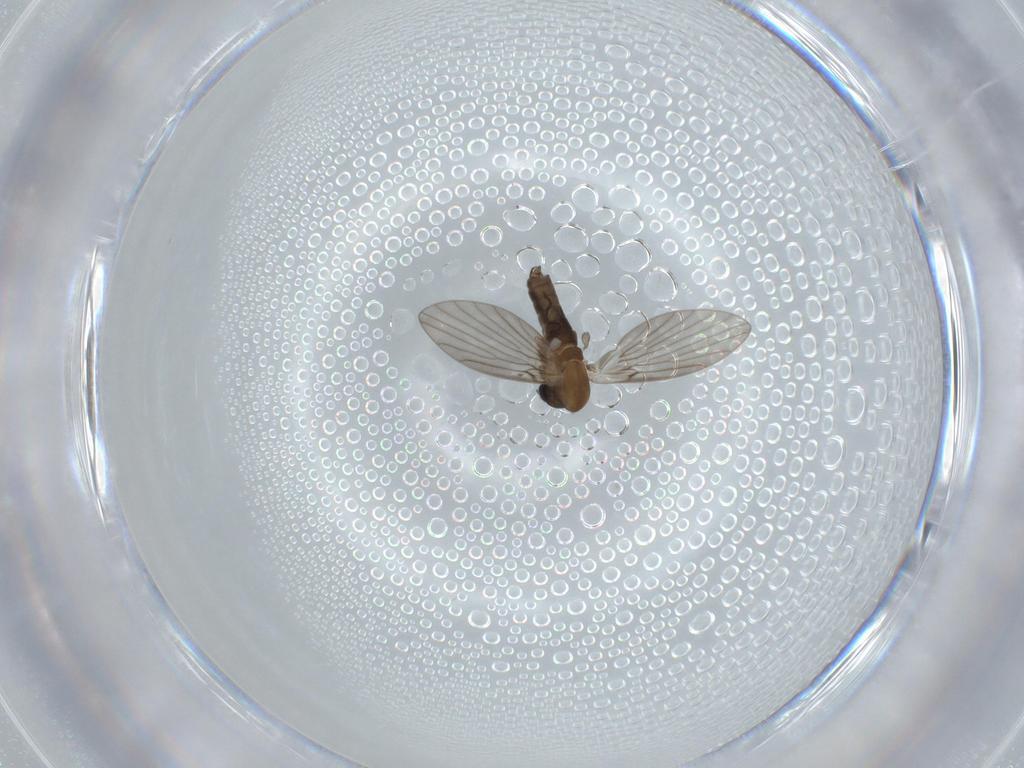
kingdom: Animalia
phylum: Arthropoda
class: Insecta
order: Diptera
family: Psychodidae
